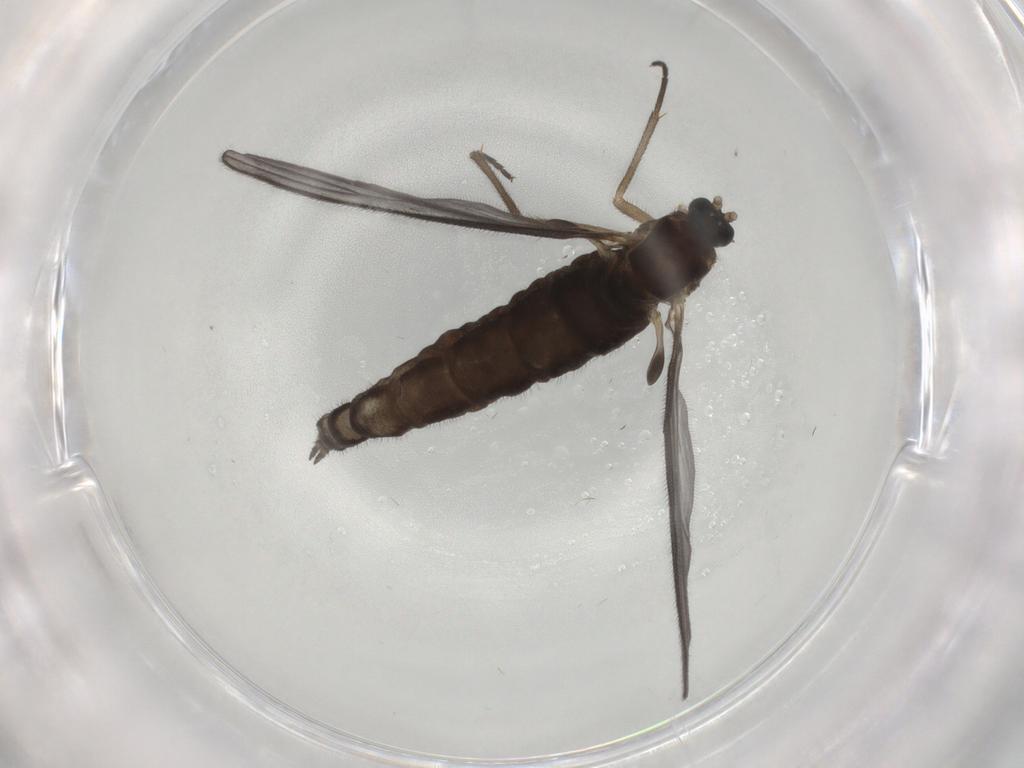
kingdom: Animalia
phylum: Arthropoda
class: Insecta
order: Diptera
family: Sciaridae
